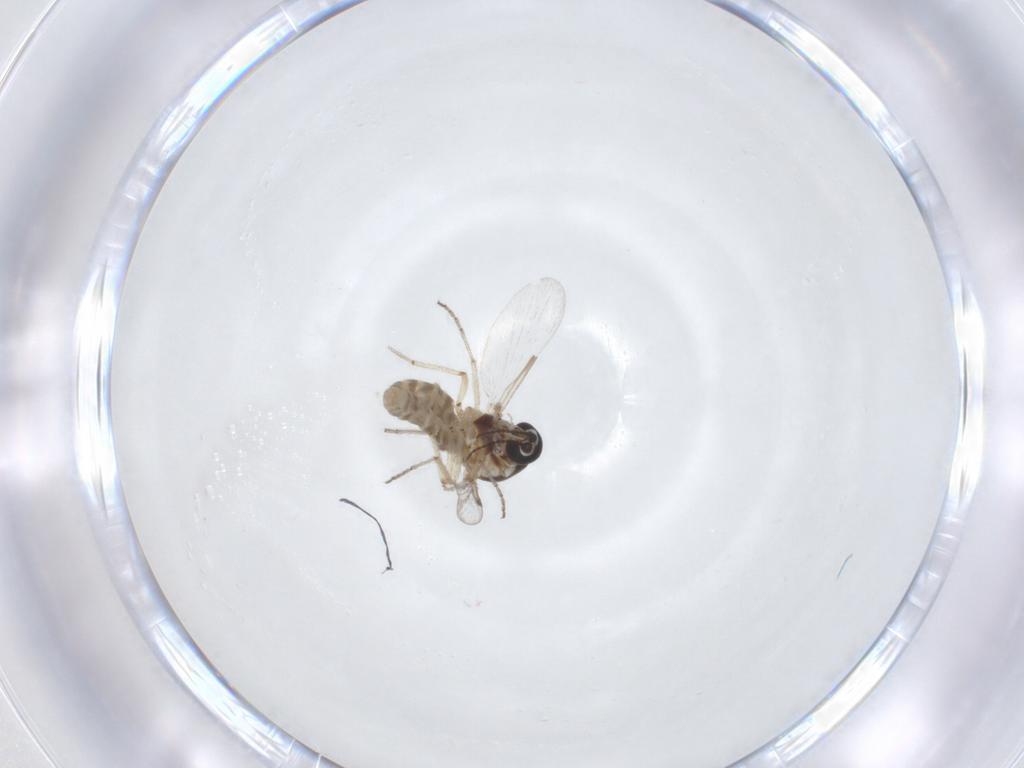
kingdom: Animalia
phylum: Arthropoda
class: Insecta
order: Diptera
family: Ceratopogonidae
